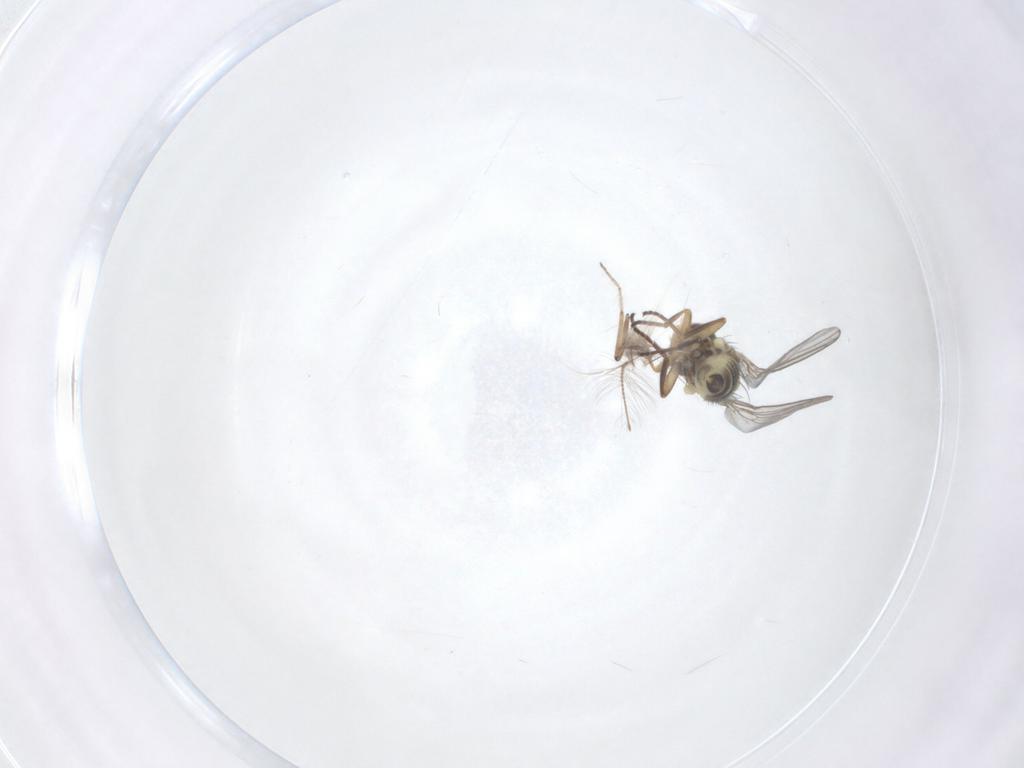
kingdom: Animalia
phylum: Arthropoda
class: Insecta
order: Diptera
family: Agromyzidae
